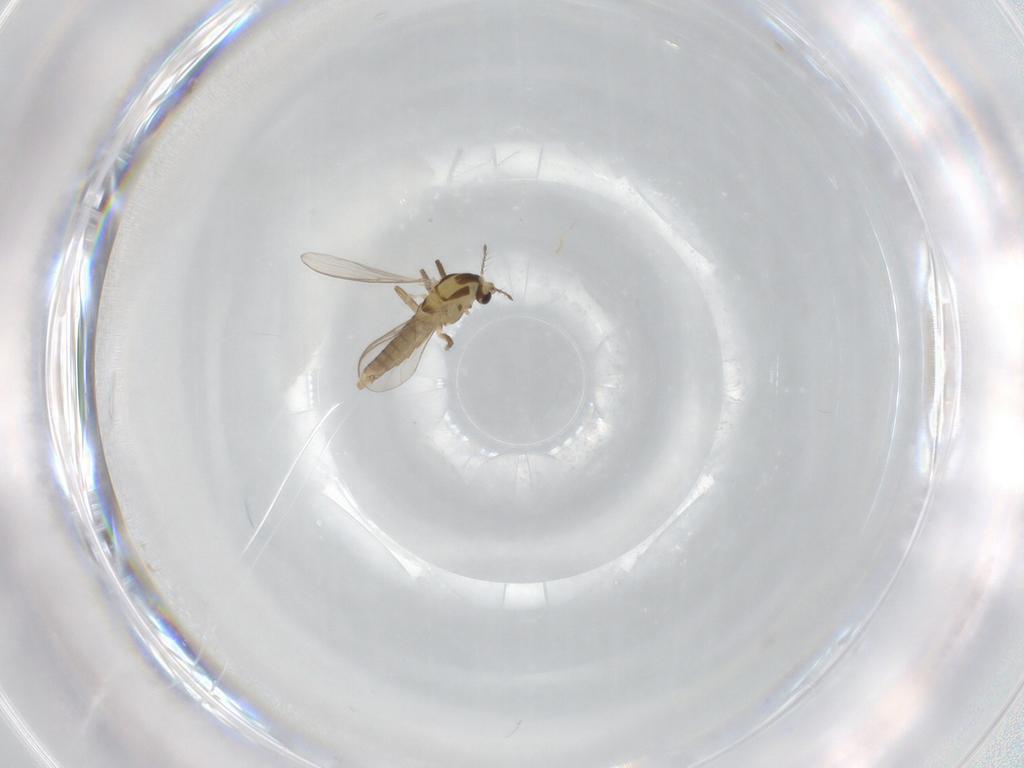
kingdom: Animalia
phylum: Arthropoda
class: Insecta
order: Diptera
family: Chironomidae
